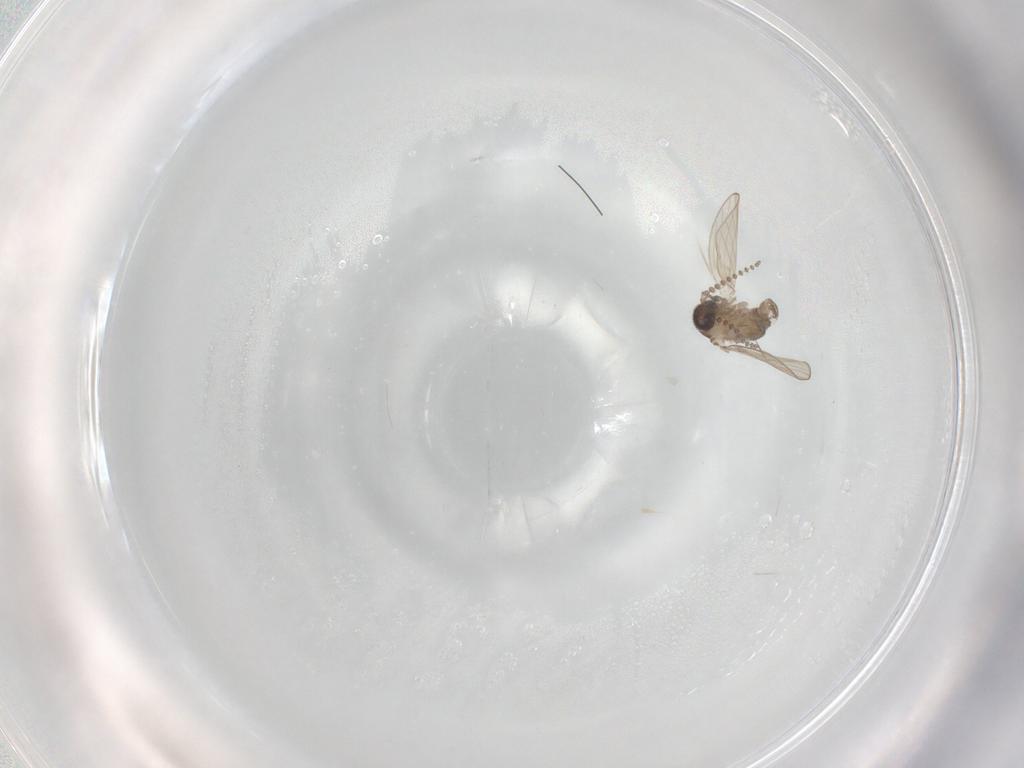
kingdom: Animalia
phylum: Arthropoda
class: Insecta
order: Diptera
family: Psychodidae
